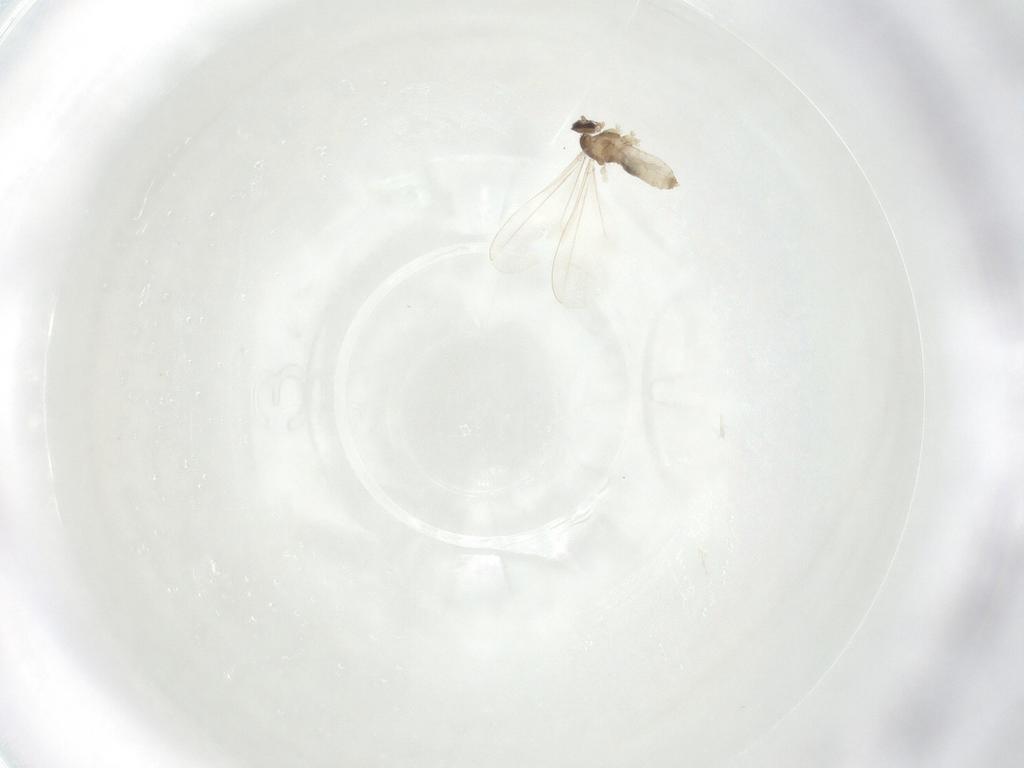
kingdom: Animalia
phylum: Arthropoda
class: Insecta
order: Diptera
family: Cecidomyiidae
